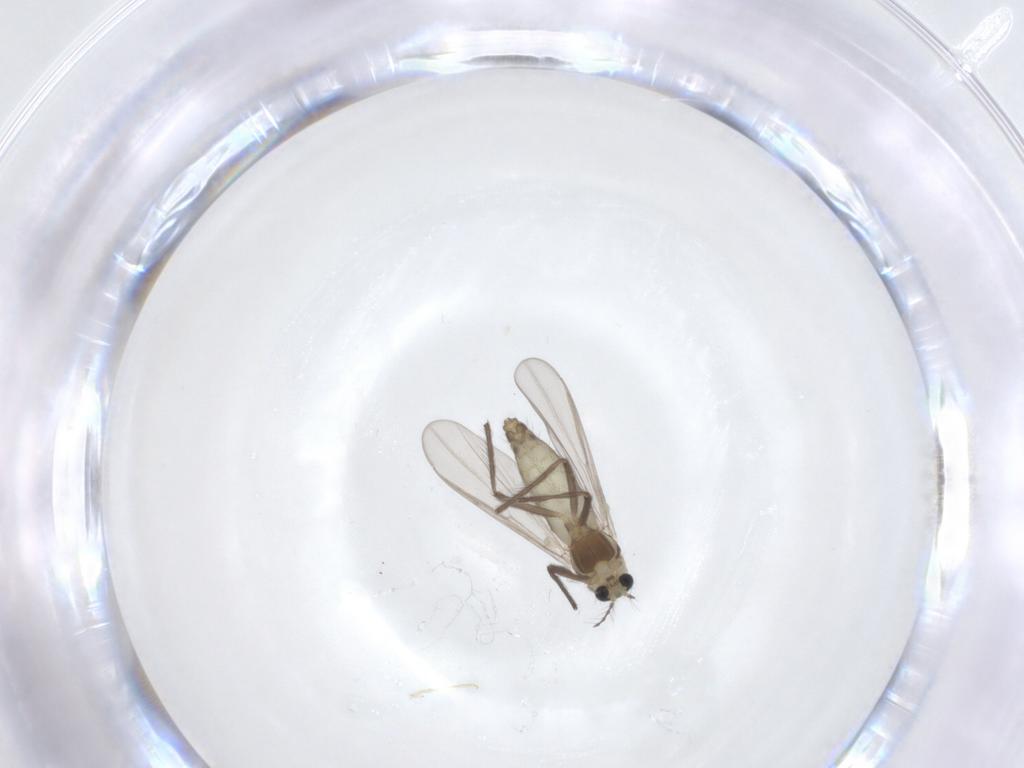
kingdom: Animalia
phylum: Arthropoda
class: Insecta
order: Diptera
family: Chironomidae
